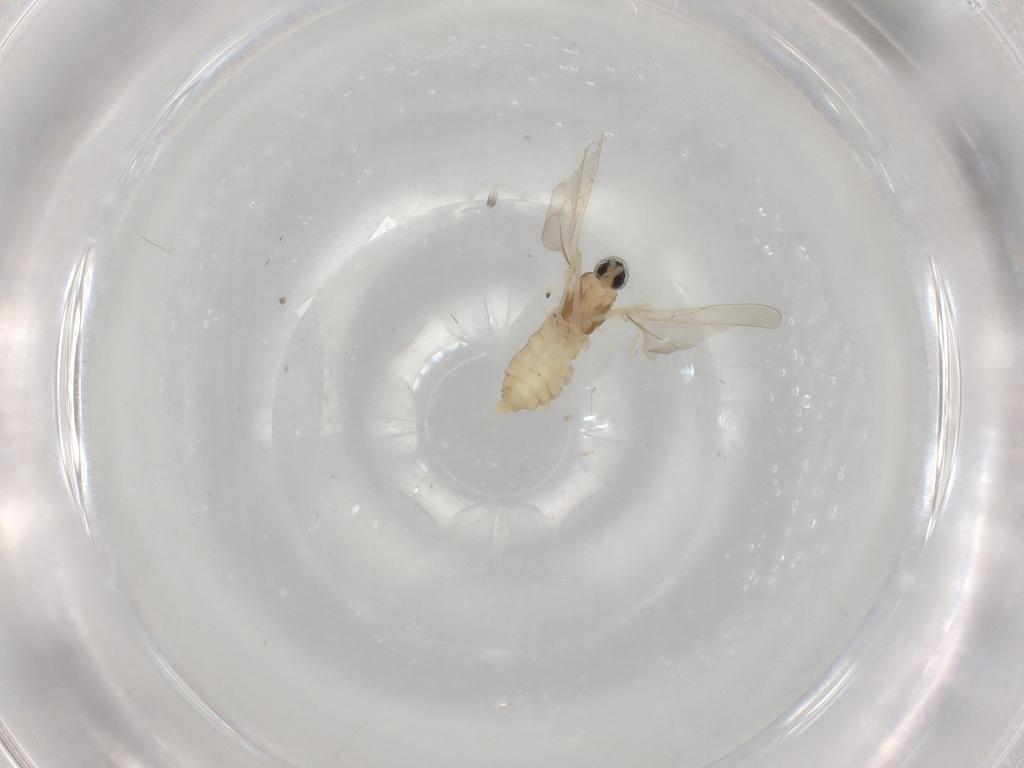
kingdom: Animalia
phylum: Arthropoda
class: Insecta
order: Diptera
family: Cecidomyiidae
